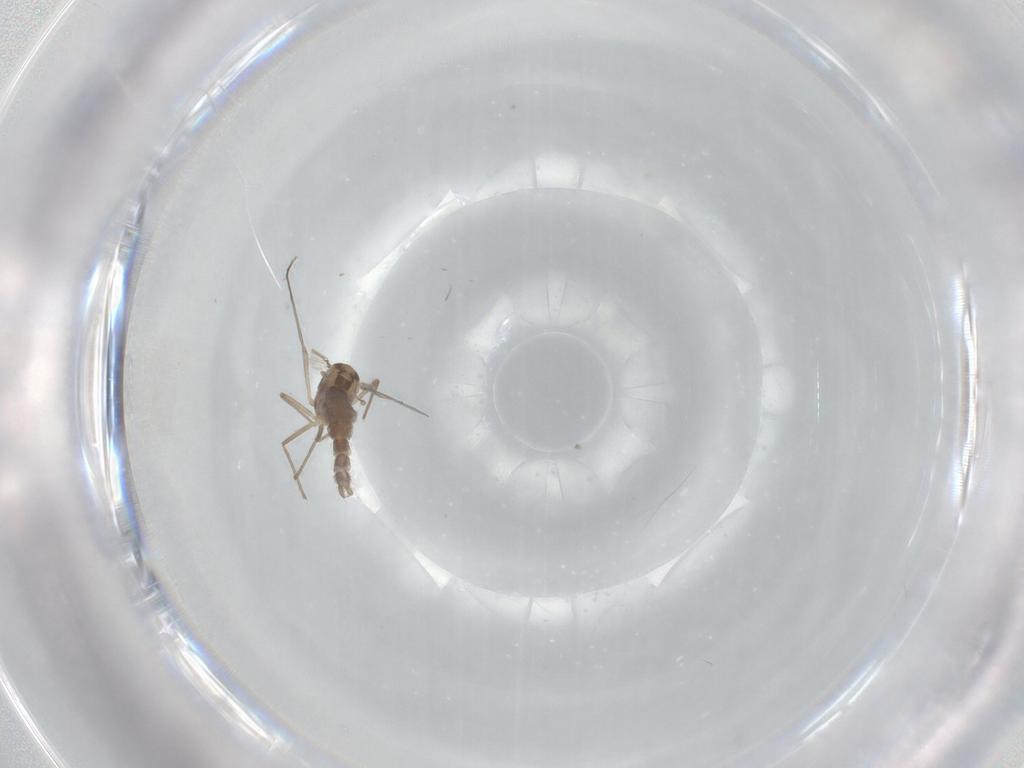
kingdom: Animalia
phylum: Arthropoda
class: Insecta
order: Diptera
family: Chironomidae
